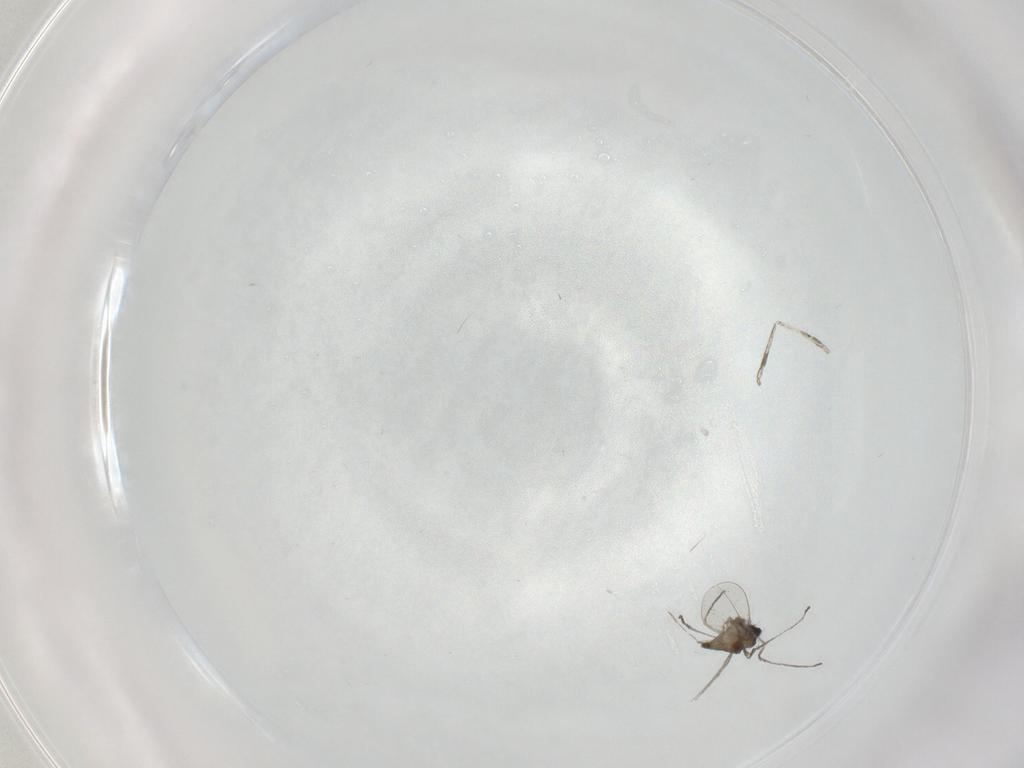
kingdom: Animalia
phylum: Arthropoda
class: Insecta
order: Diptera
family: Cecidomyiidae
